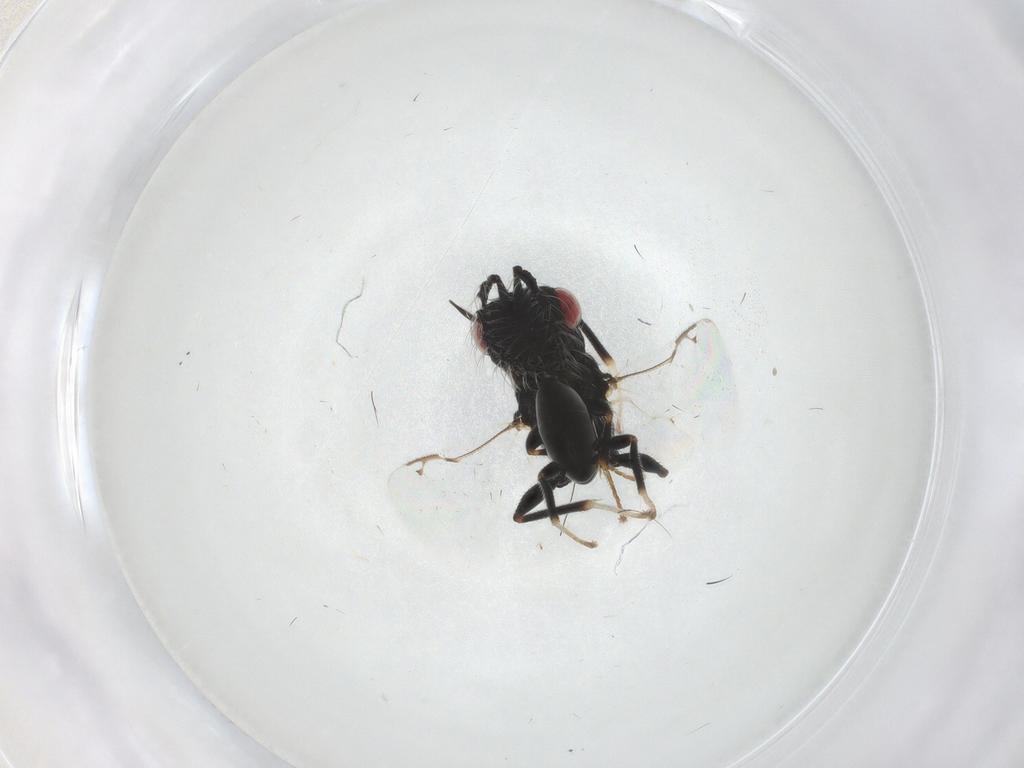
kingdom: Animalia
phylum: Arthropoda
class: Insecta
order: Hymenoptera
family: Eurytomidae
